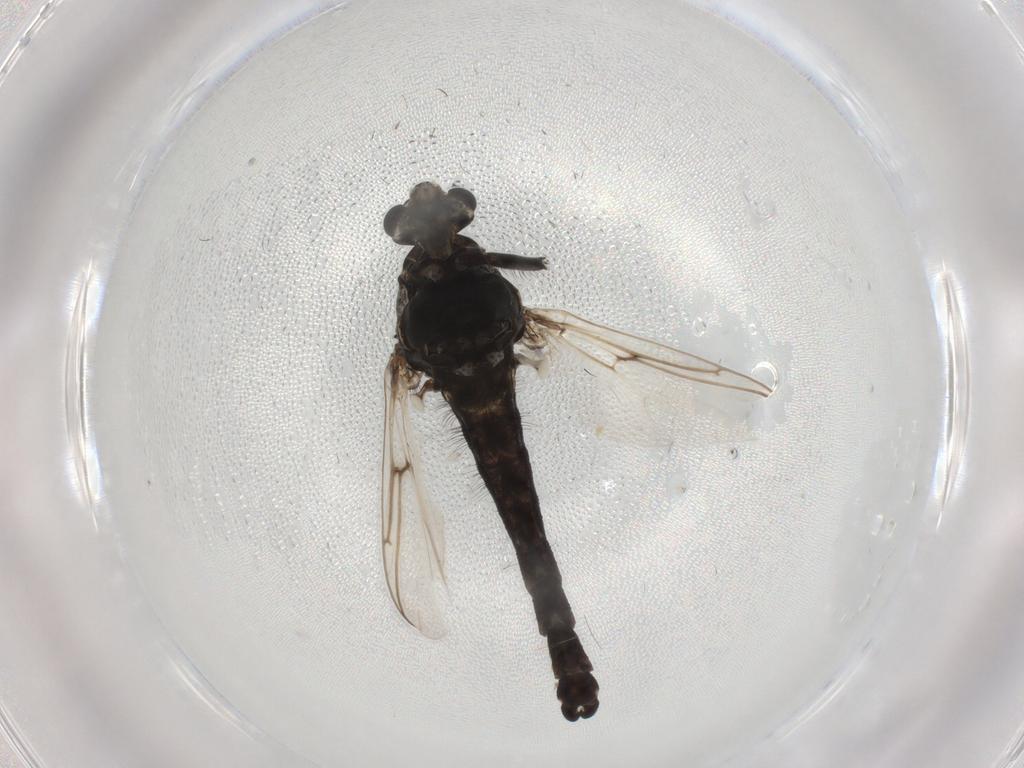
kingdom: Animalia
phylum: Arthropoda
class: Insecta
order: Diptera
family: Chironomidae
